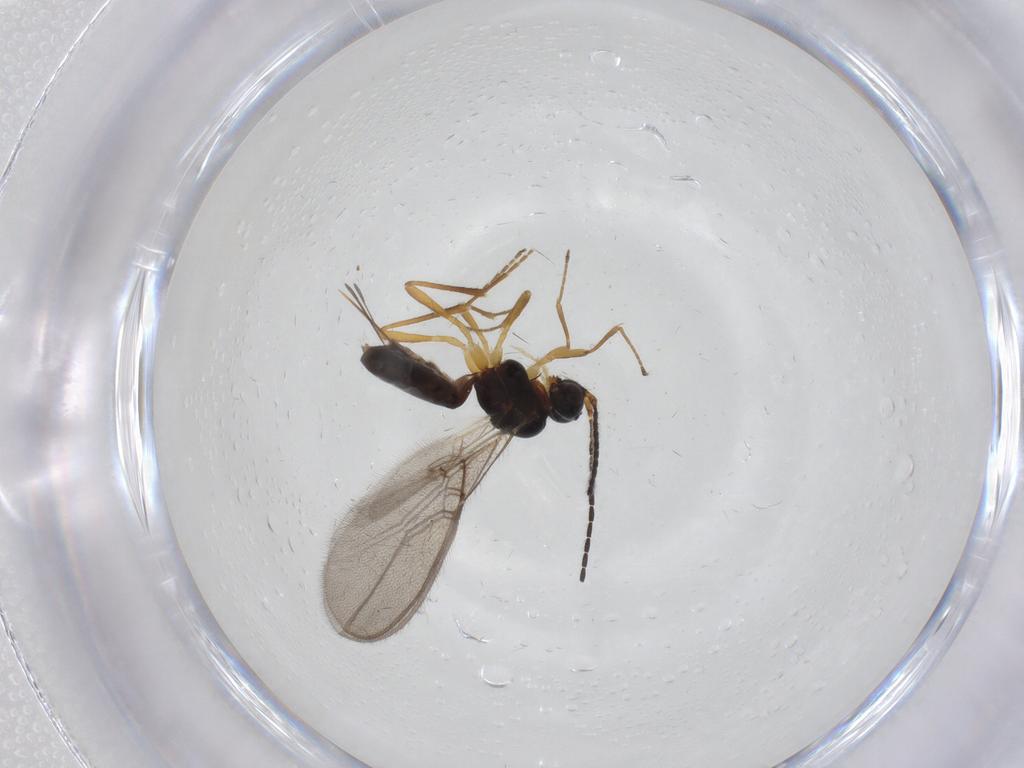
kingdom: Animalia
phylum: Arthropoda
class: Insecta
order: Hymenoptera
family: Braconidae
